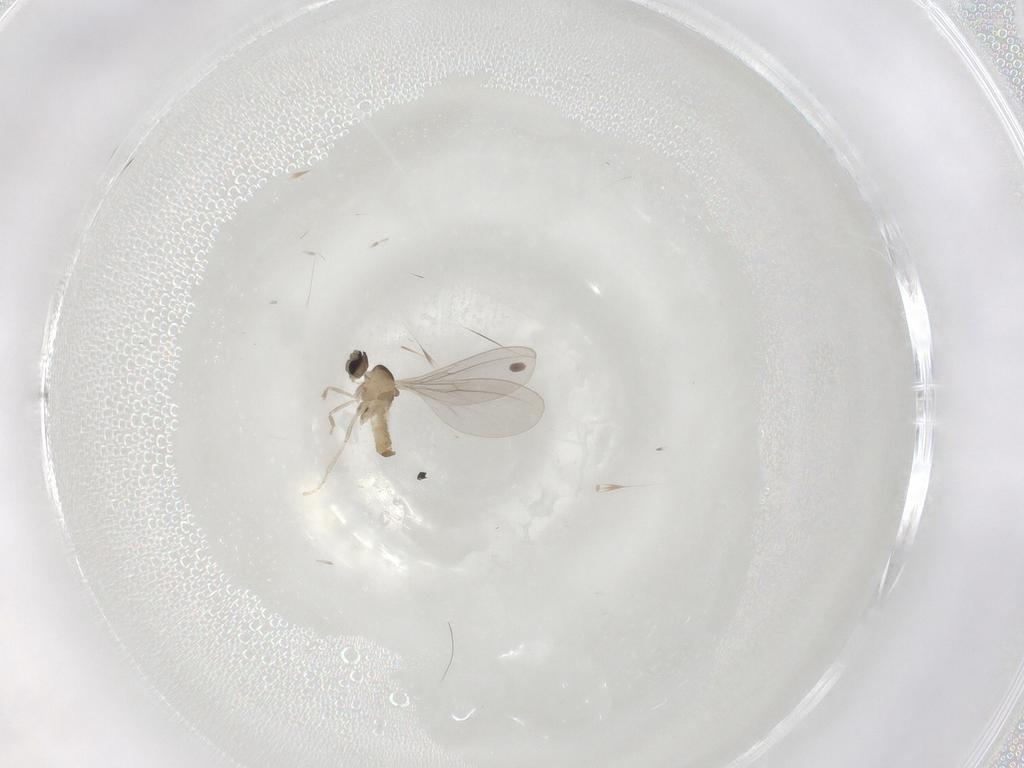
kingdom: Animalia
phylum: Arthropoda
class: Insecta
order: Diptera
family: Cecidomyiidae
